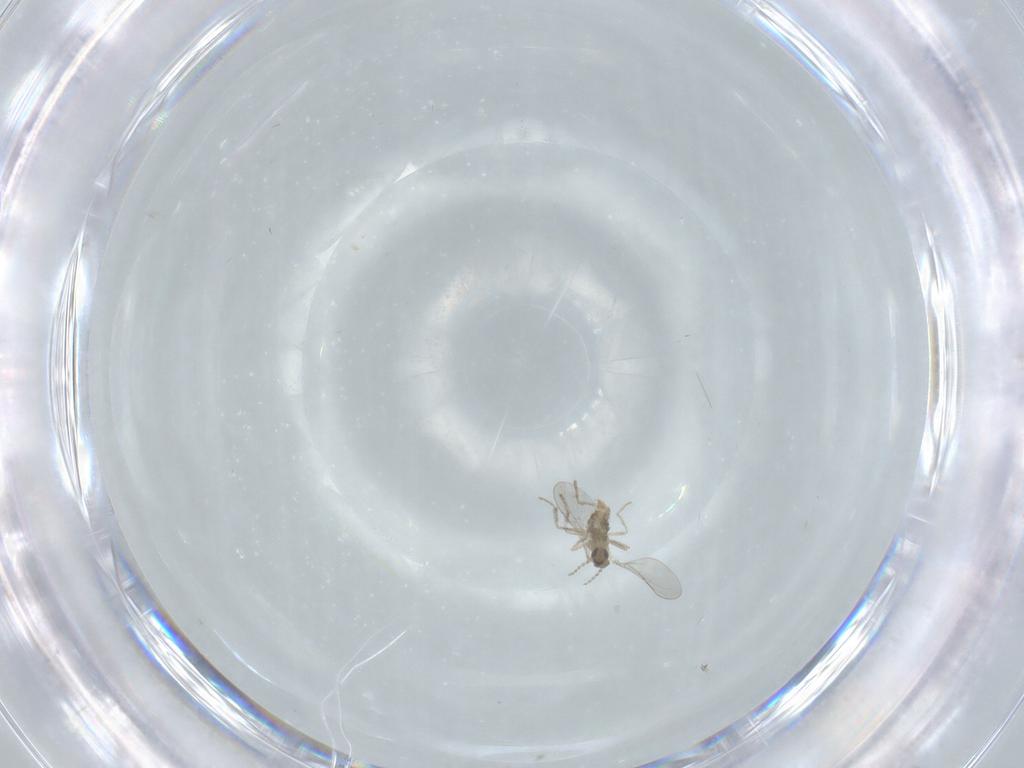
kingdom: Animalia
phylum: Arthropoda
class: Insecta
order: Diptera
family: Cecidomyiidae
